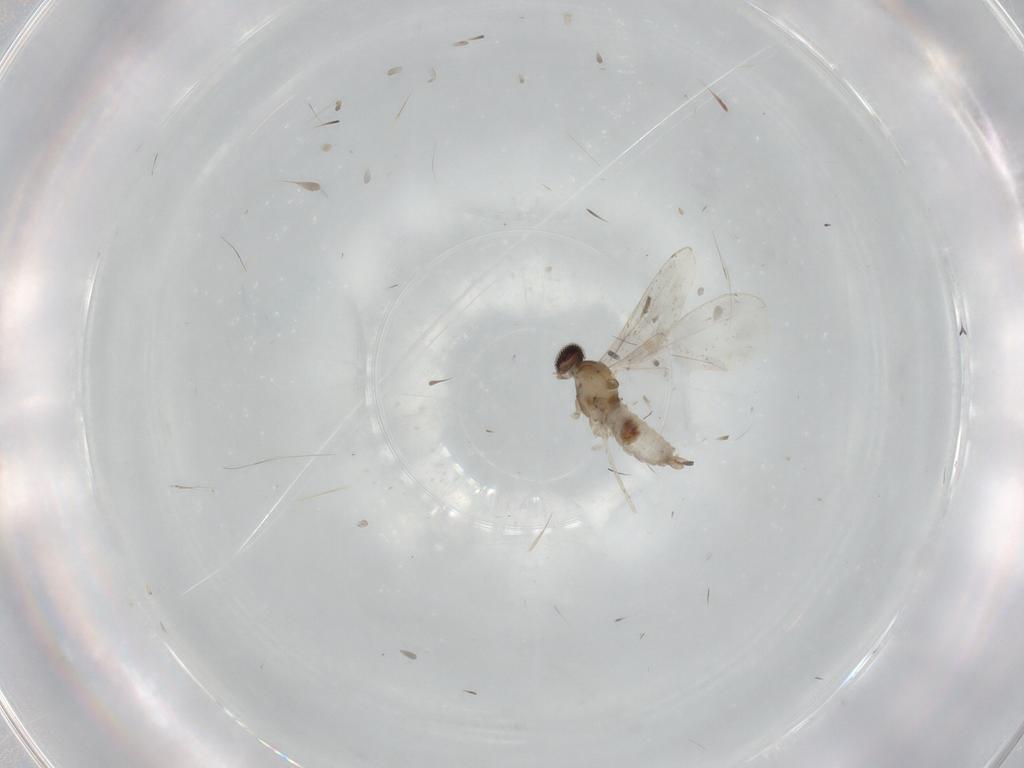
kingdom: Animalia
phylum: Arthropoda
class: Insecta
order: Diptera
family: Cecidomyiidae
